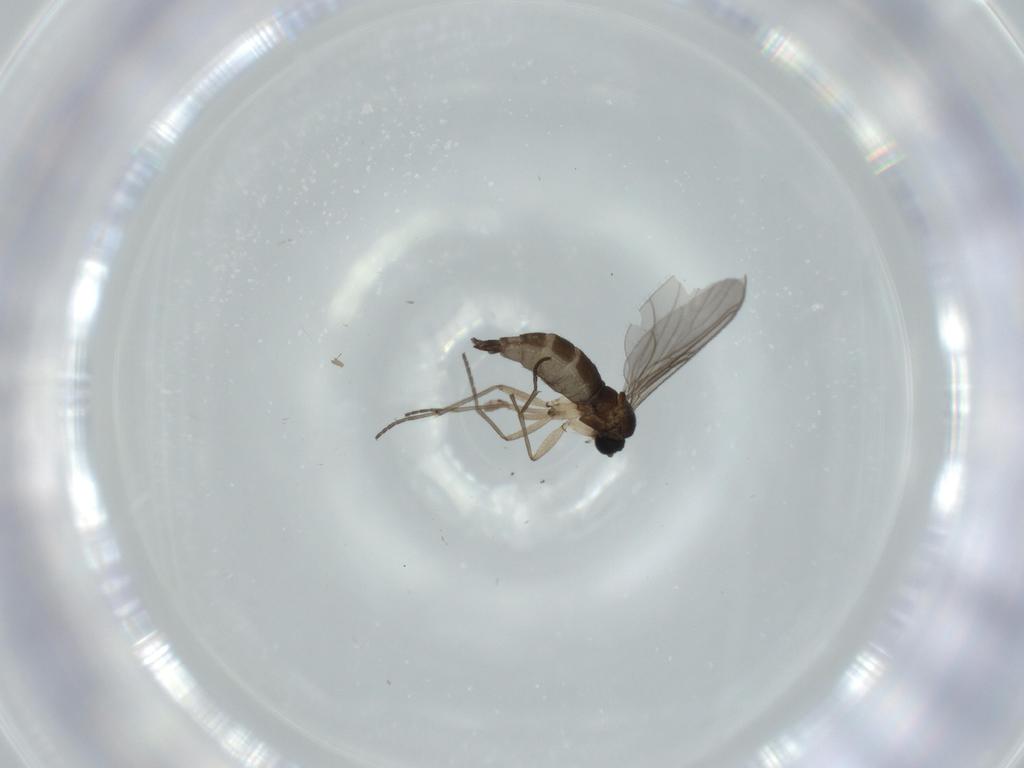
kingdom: Animalia
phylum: Arthropoda
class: Insecta
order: Diptera
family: Sciaridae
